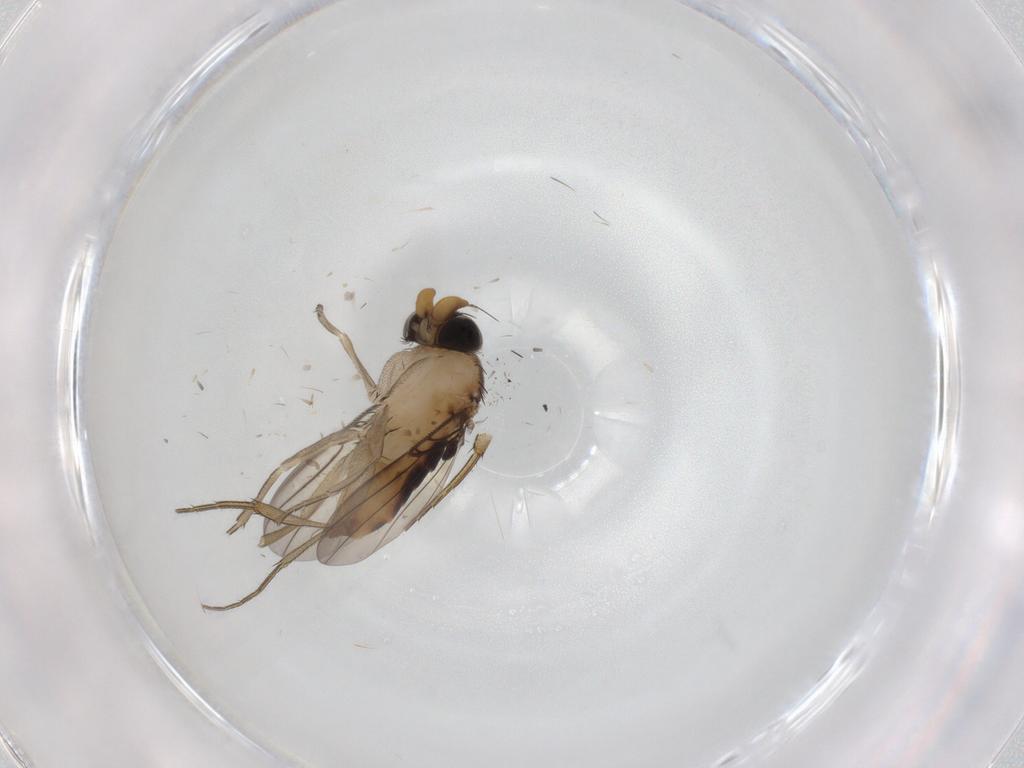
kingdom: Animalia
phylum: Arthropoda
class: Insecta
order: Diptera
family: Phoridae
